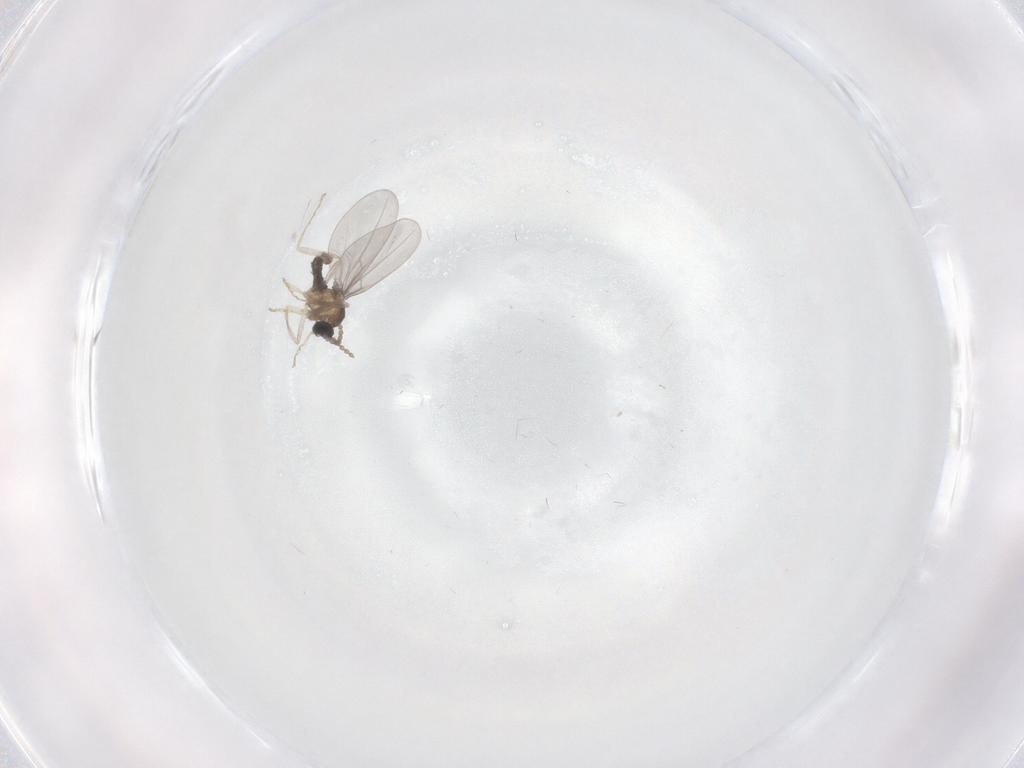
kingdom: Animalia
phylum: Arthropoda
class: Insecta
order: Diptera
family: Cecidomyiidae
